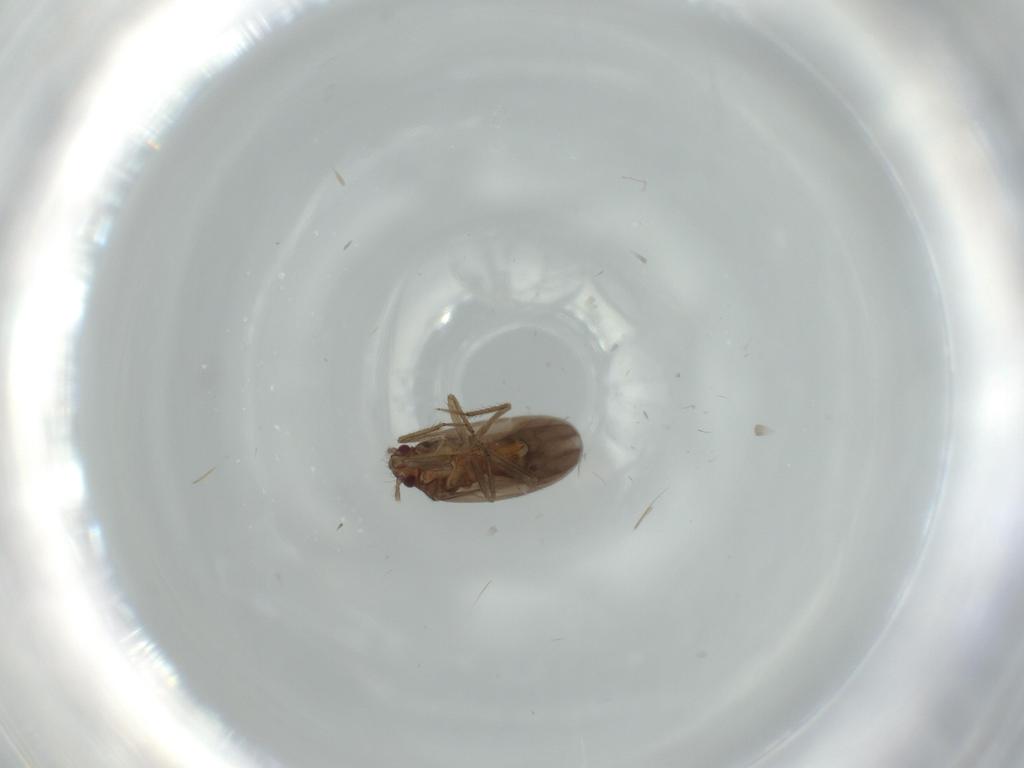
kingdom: Animalia
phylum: Arthropoda
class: Insecta
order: Hemiptera
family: Ceratocombidae
